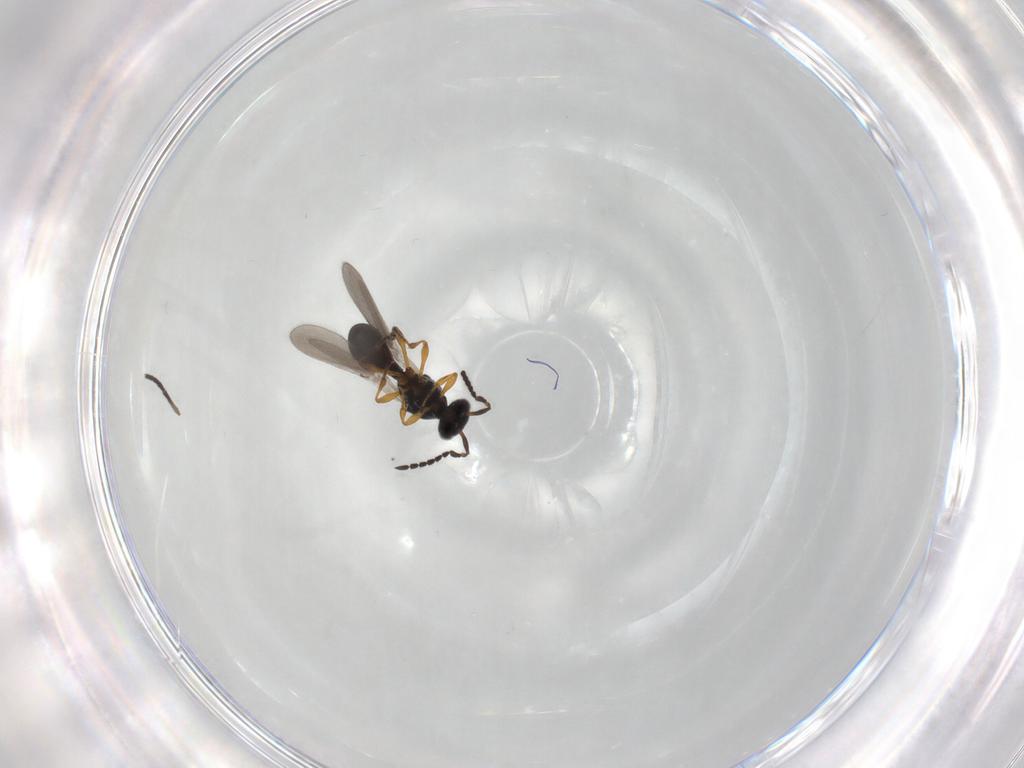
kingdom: Animalia
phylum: Arthropoda
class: Insecta
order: Hymenoptera
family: Platygastridae
